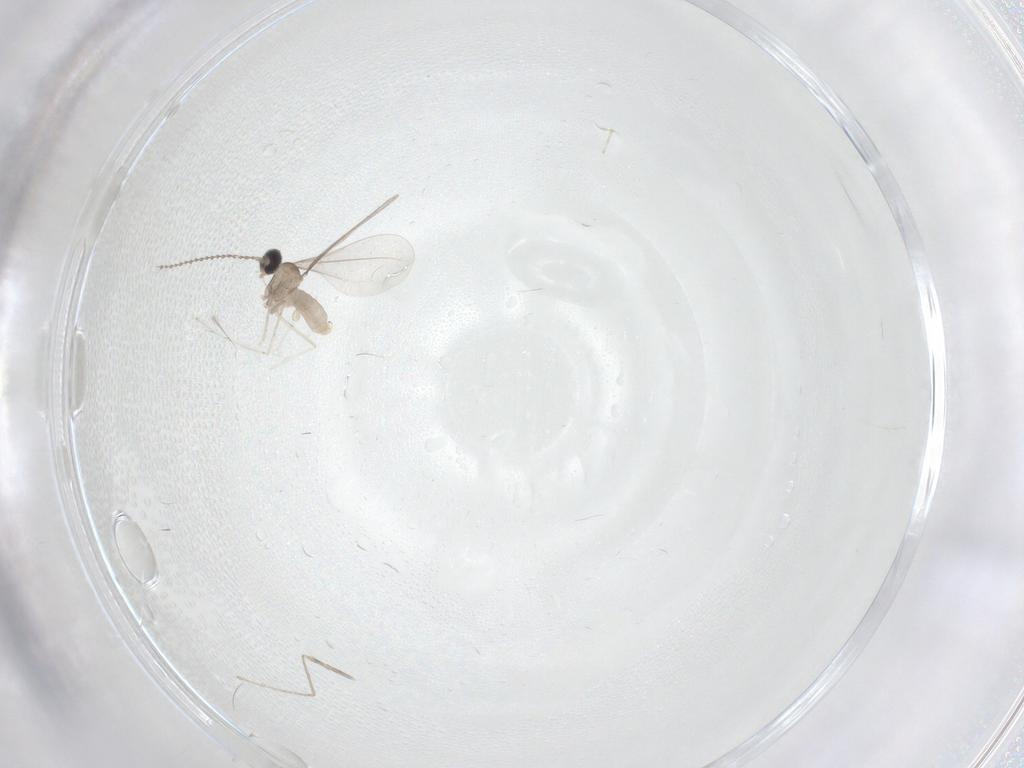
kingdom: Animalia
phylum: Arthropoda
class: Insecta
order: Diptera
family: Cecidomyiidae
